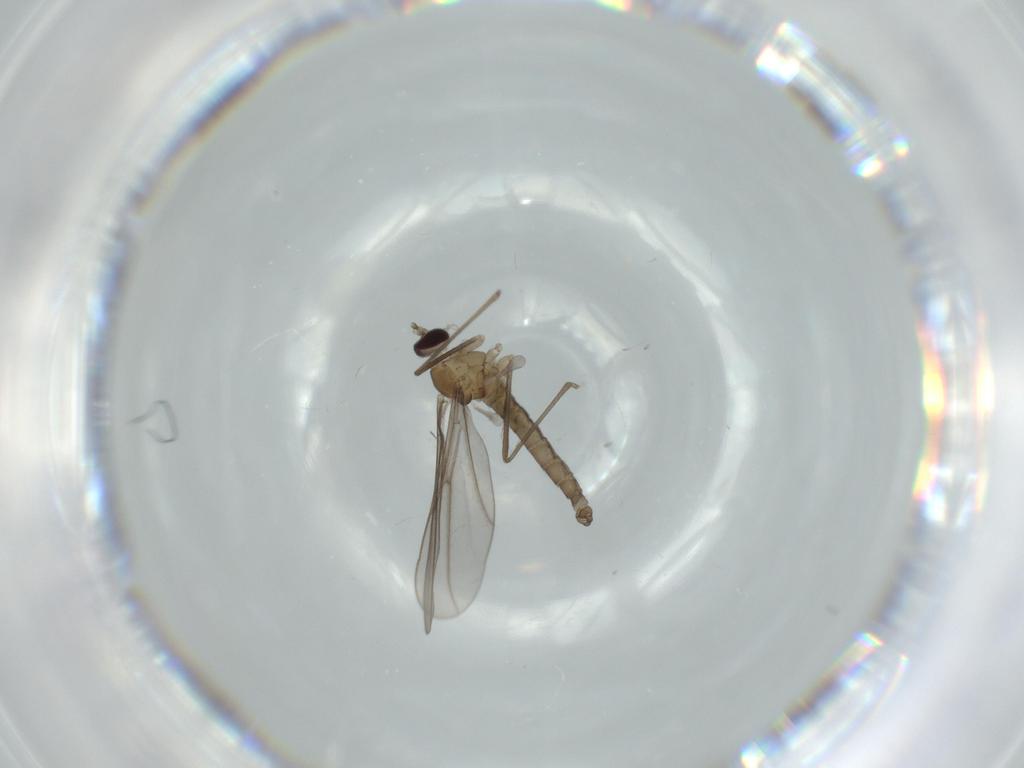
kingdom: Animalia
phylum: Arthropoda
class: Insecta
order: Diptera
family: Cecidomyiidae
